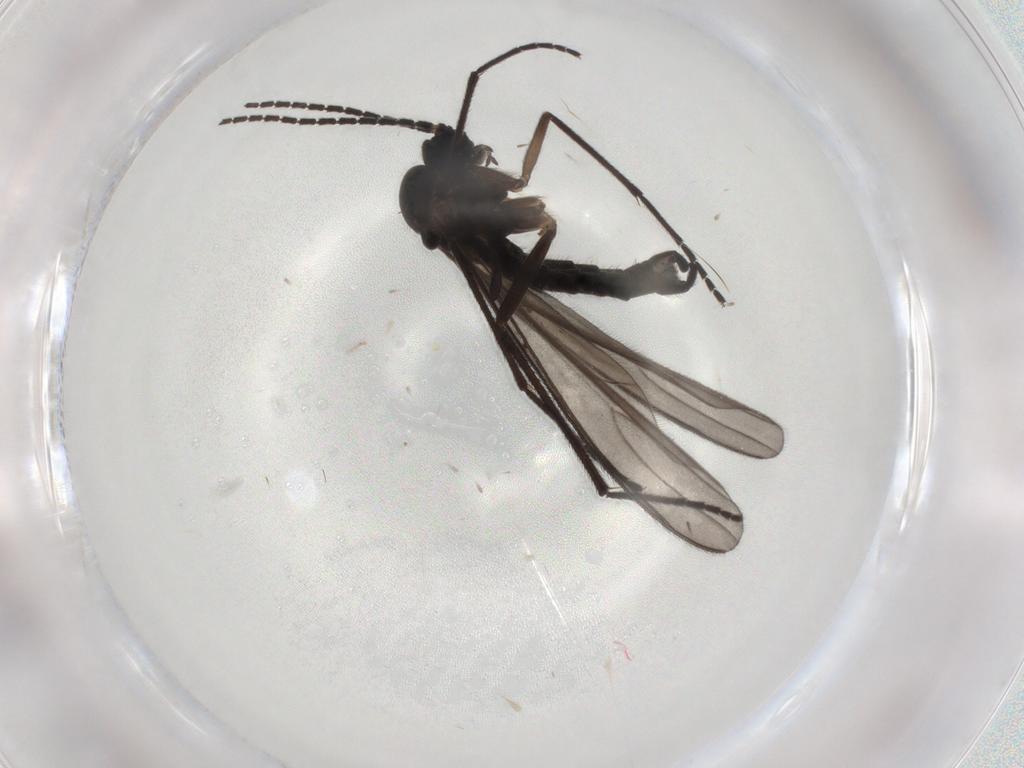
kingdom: Animalia
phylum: Arthropoda
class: Insecta
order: Diptera
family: Sciaridae
